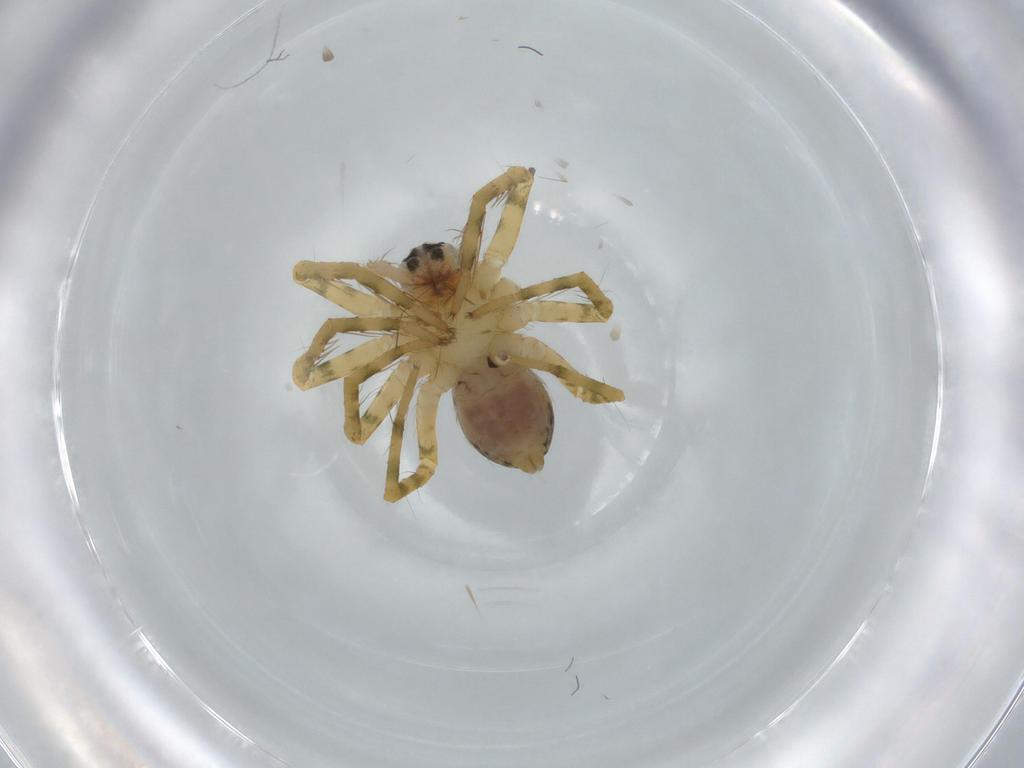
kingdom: Animalia
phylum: Arthropoda
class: Arachnida
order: Araneae
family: Ctenidae
